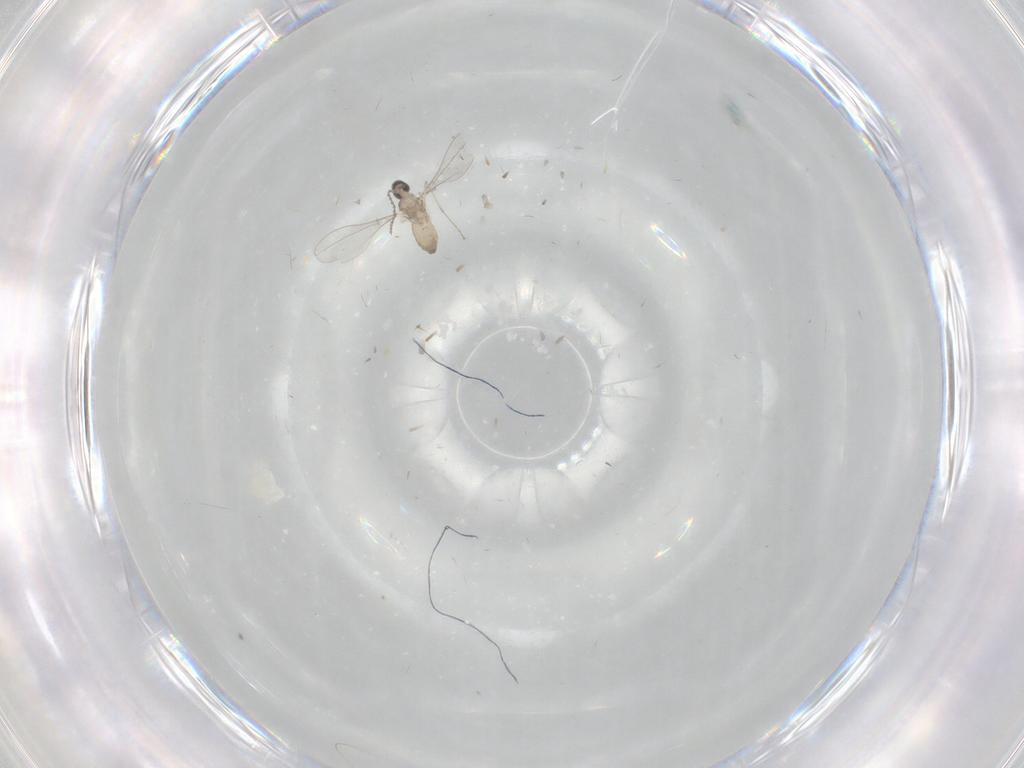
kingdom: Animalia
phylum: Arthropoda
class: Insecta
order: Diptera
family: Cecidomyiidae
